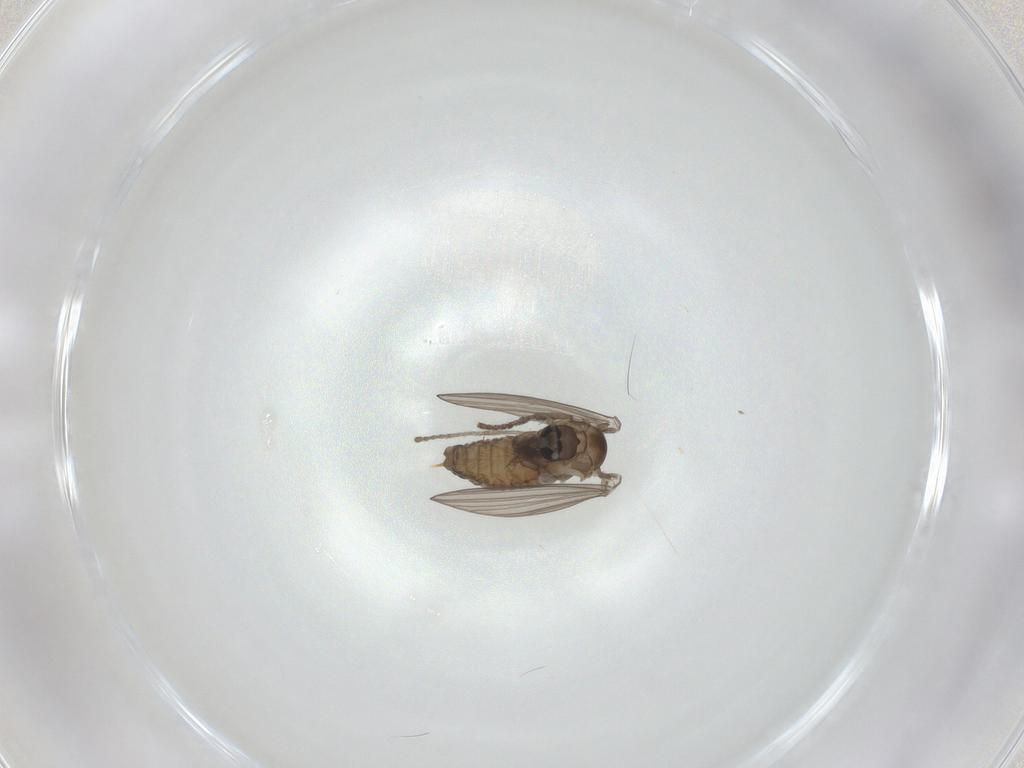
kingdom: Animalia
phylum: Arthropoda
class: Insecta
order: Diptera
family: Psychodidae
